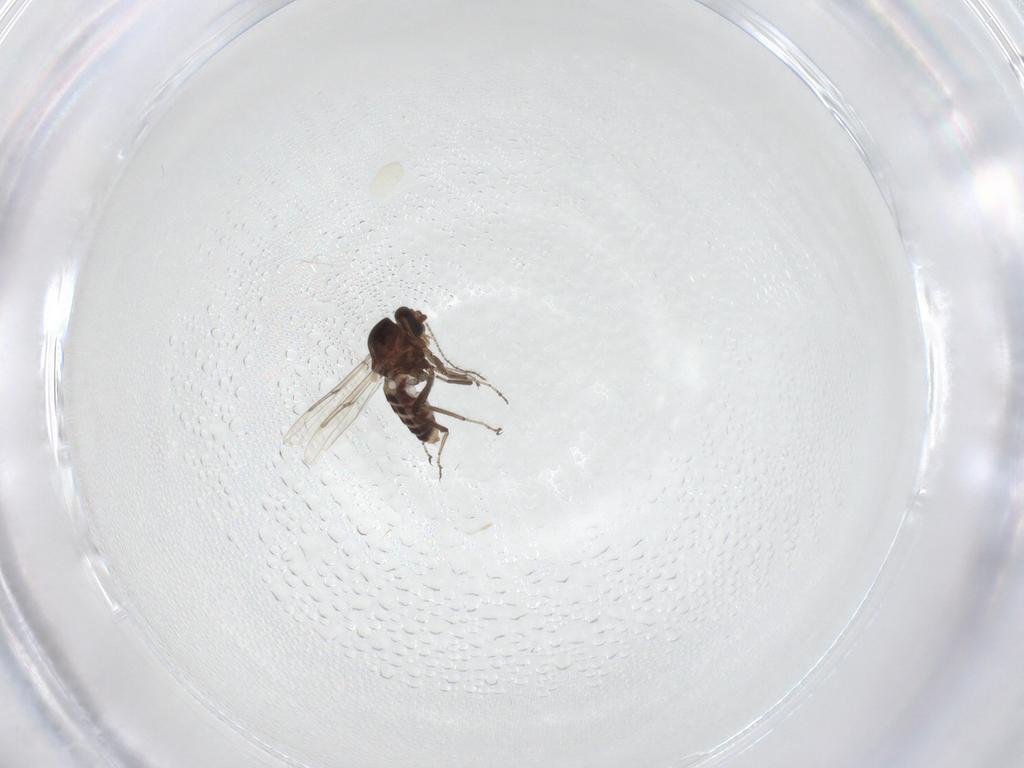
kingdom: Animalia
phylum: Arthropoda
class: Insecta
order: Diptera
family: Ceratopogonidae
